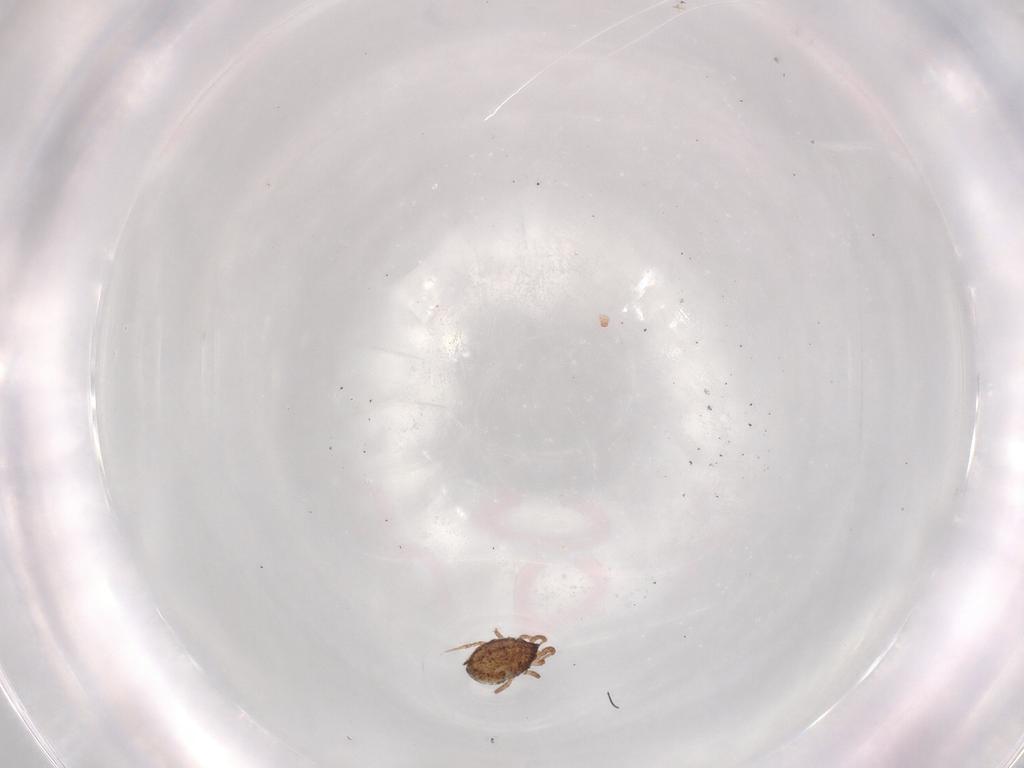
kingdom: Animalia
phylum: Arthropoda
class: Arachnida
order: Mesostigmata
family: Ameroseiidae
